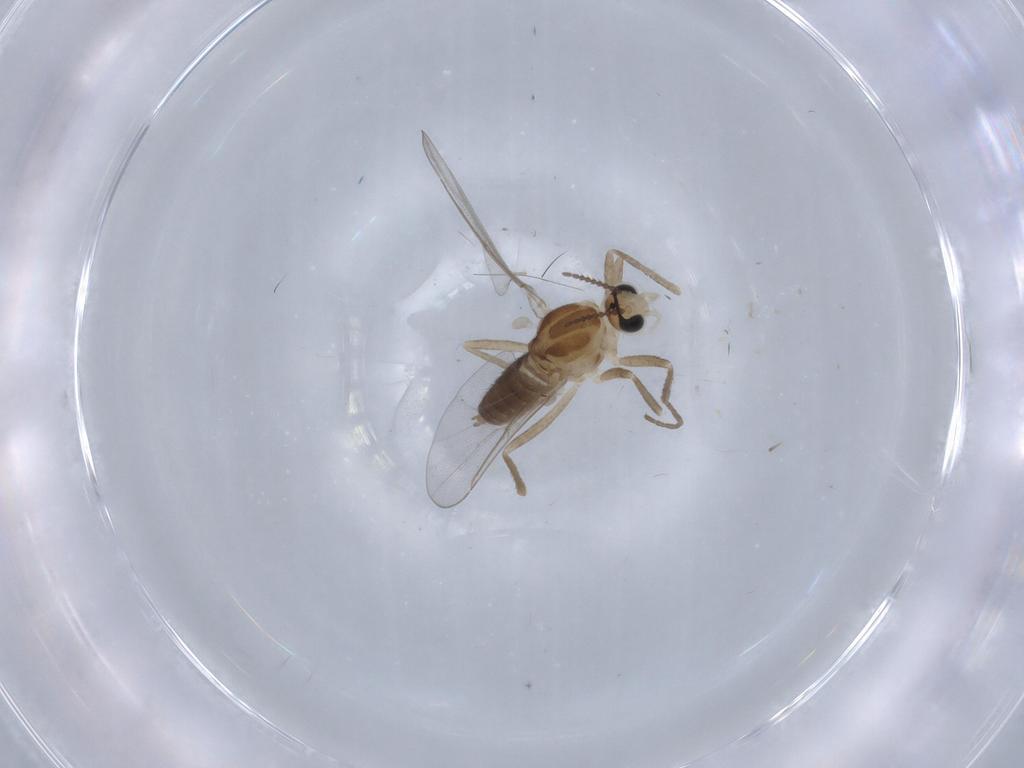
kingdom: Animalia
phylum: Arthropoda
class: Insecta
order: Diptera
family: Cecidomyiidae
